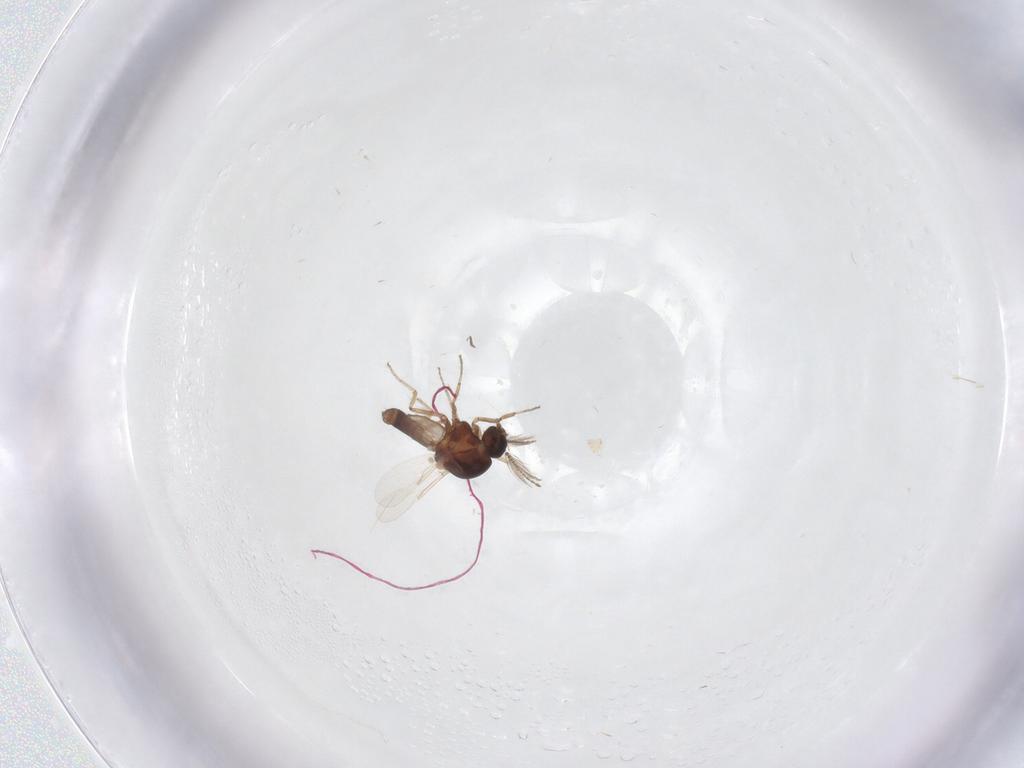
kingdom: Animalia
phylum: Arthropoda
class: Insecta
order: Diptera
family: Ceratopogonidae
